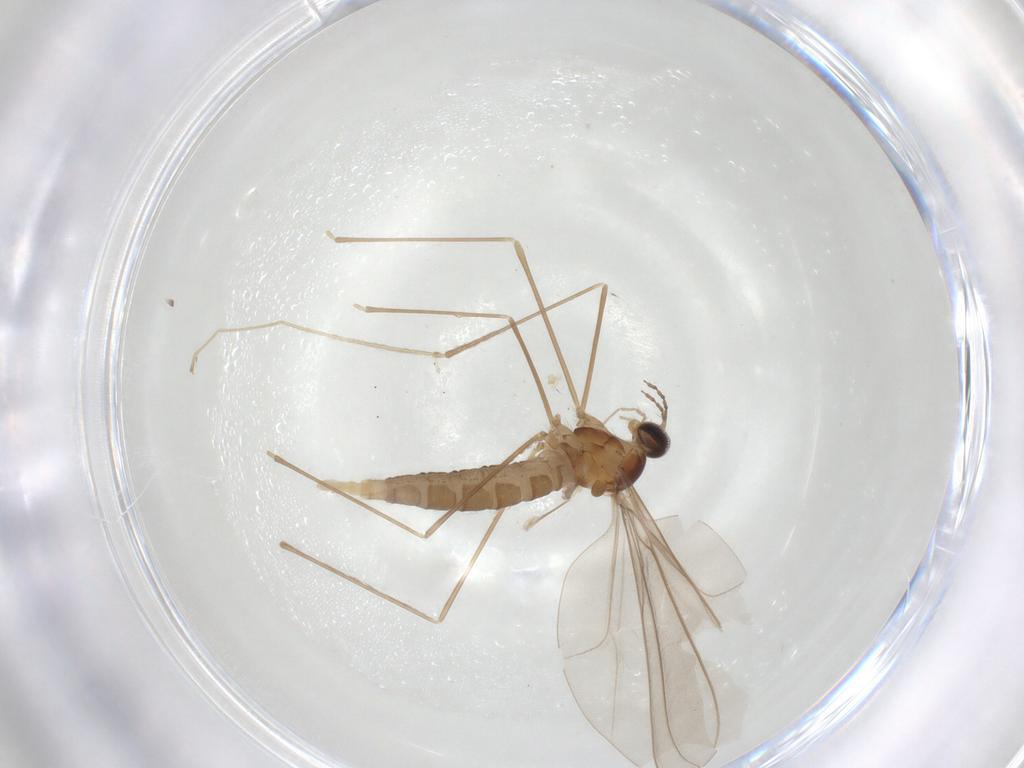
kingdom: Animalia
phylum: Arthropoda
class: Insecta
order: Diptera
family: Cecidomyiidae
